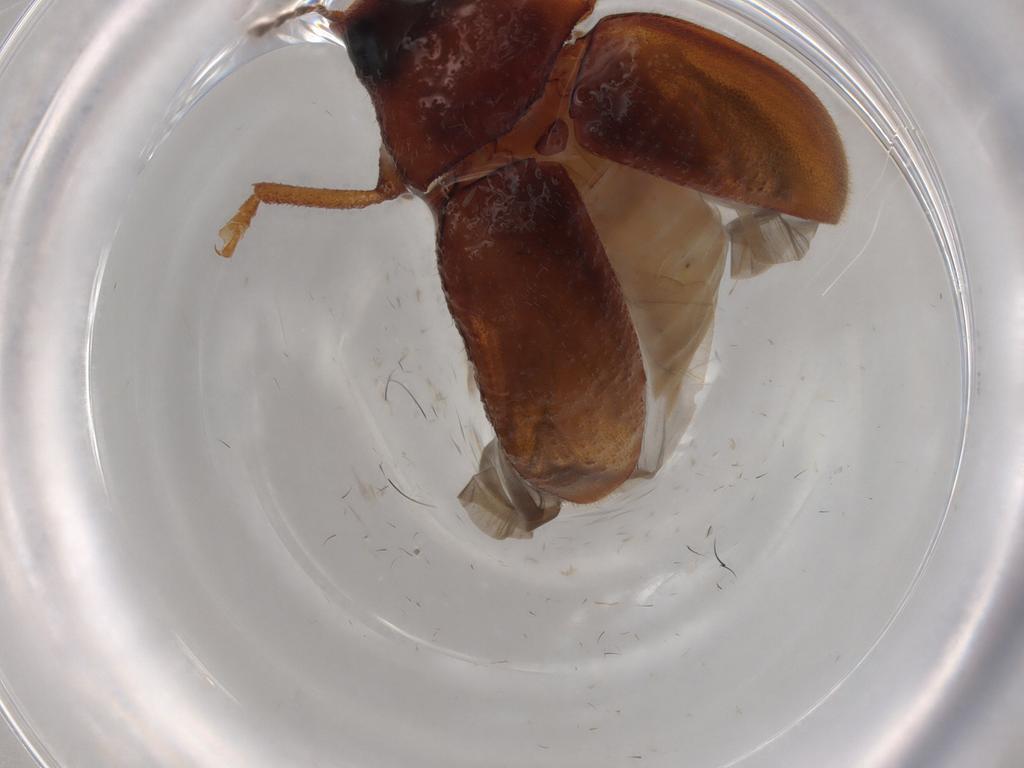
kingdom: Animalia
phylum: Arthropoda
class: Insecta
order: Coleoptera
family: Ptilodactylidae
